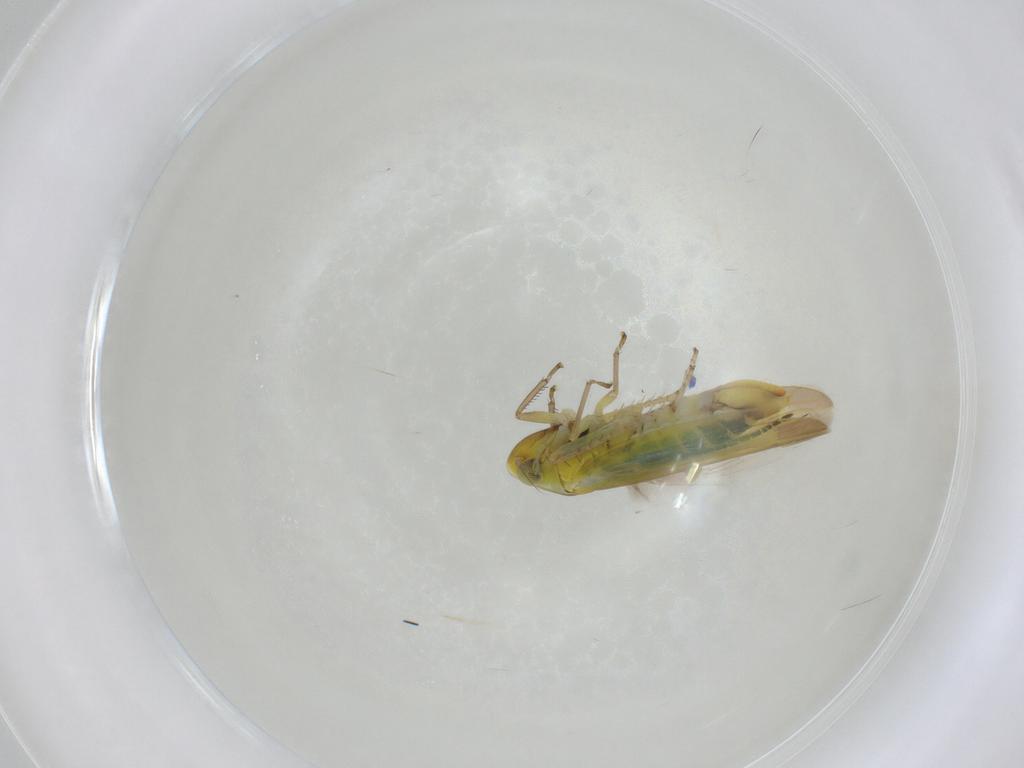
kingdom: Animalia
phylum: Arthropoda
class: Insecta
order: Hemiptera
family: Cicadellidae
